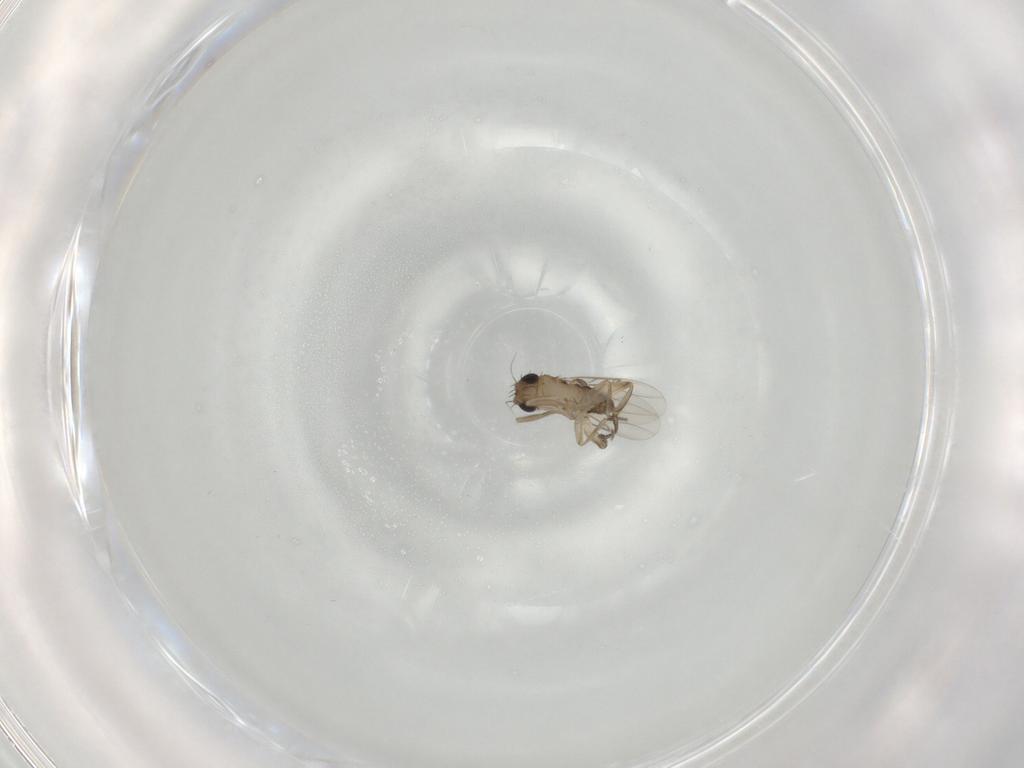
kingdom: Animalia
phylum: Arthropoda
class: Insecta
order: Diptera
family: Phoridae
